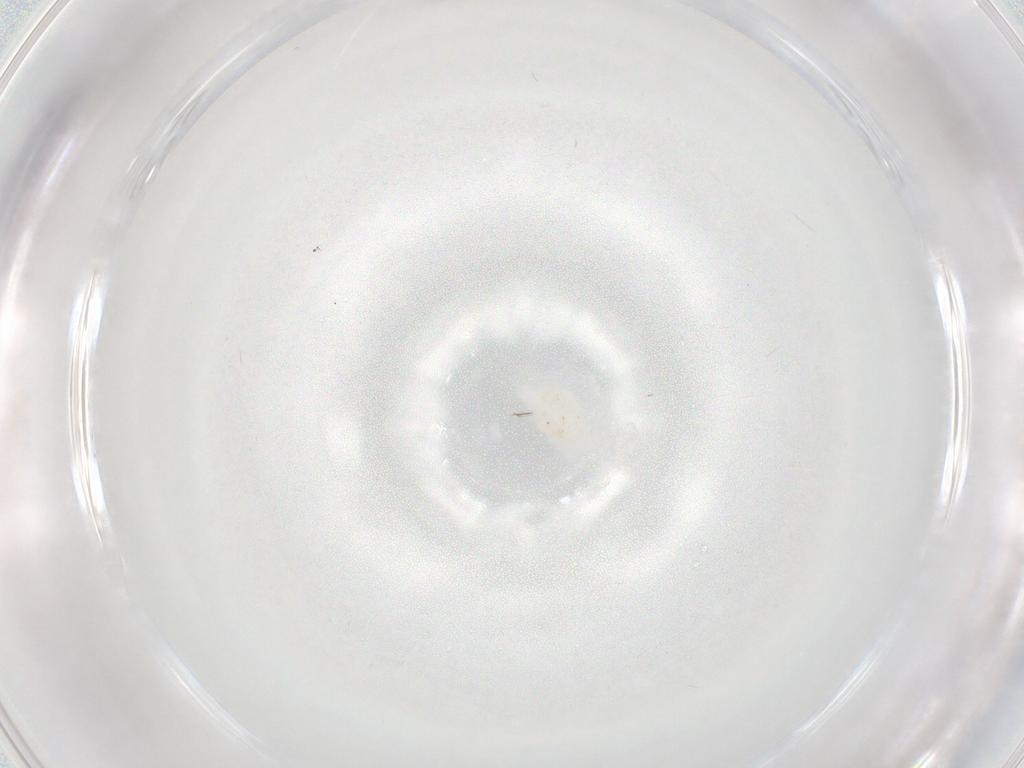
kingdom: Animalia
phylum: Arthropoda
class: Insecta
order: Diptera
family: Cecidomyiidae
